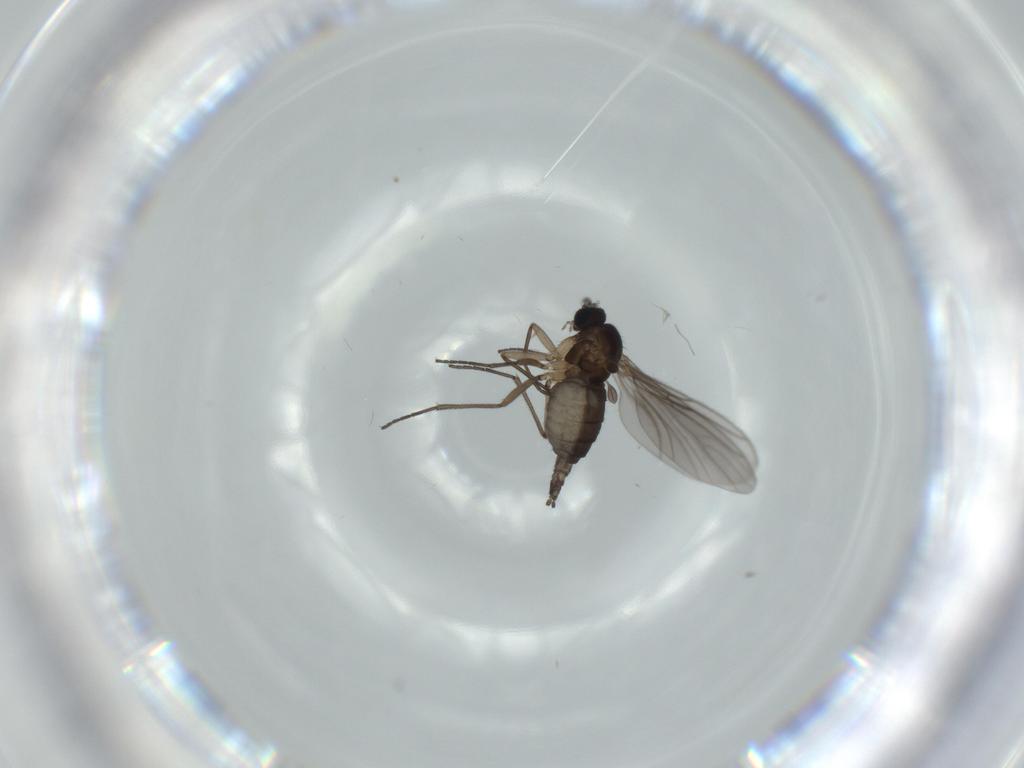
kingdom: Animalia
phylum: Arthropoda
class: Insecta
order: Diptera
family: Sciaridae
